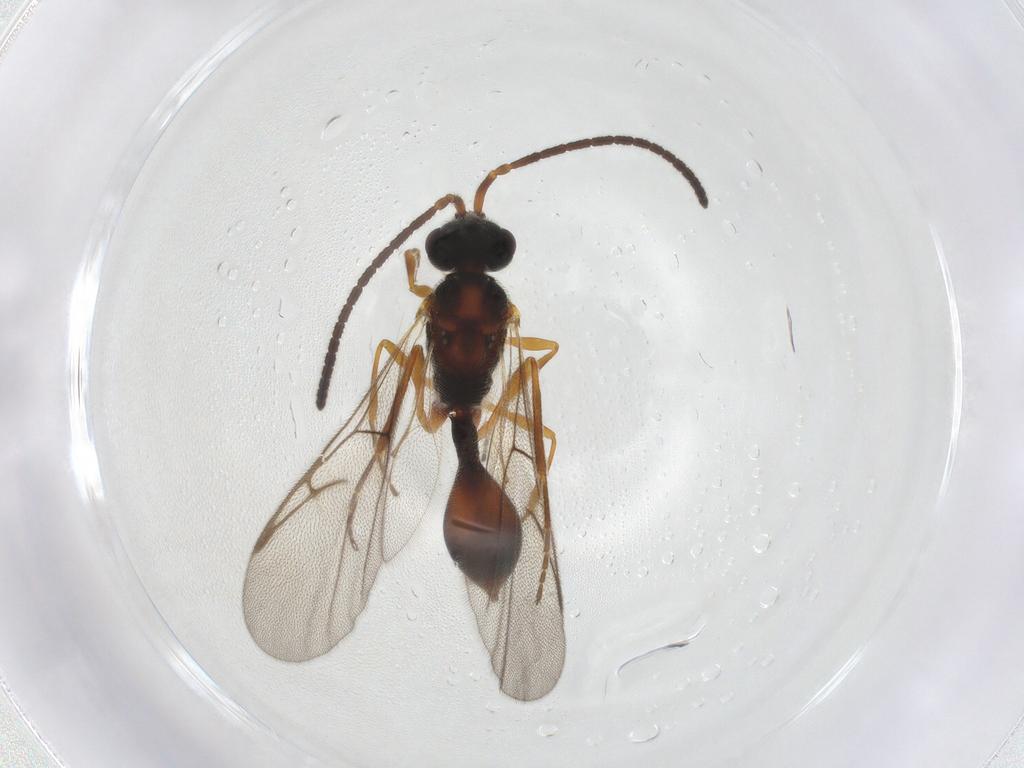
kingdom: Animalia
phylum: Arthropoda
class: Insecta
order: Hymenoptera
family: Diapriidae
